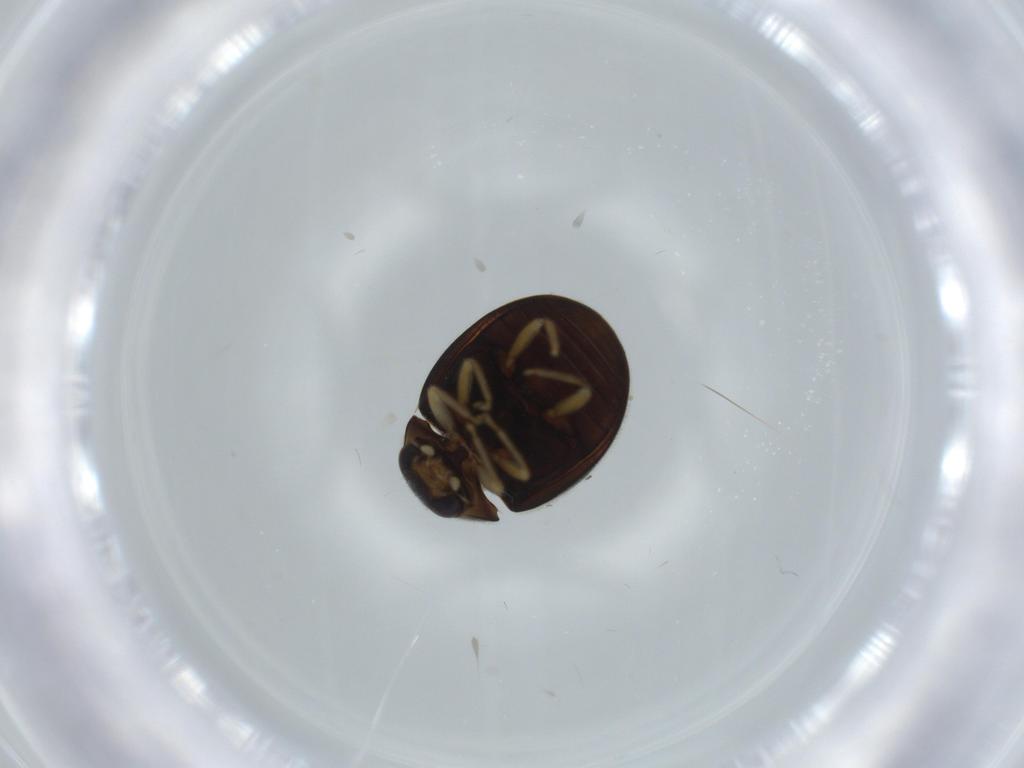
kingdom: Animalia
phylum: Arthropoda
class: Insecta
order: Coleoptera
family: Coccinellidae
